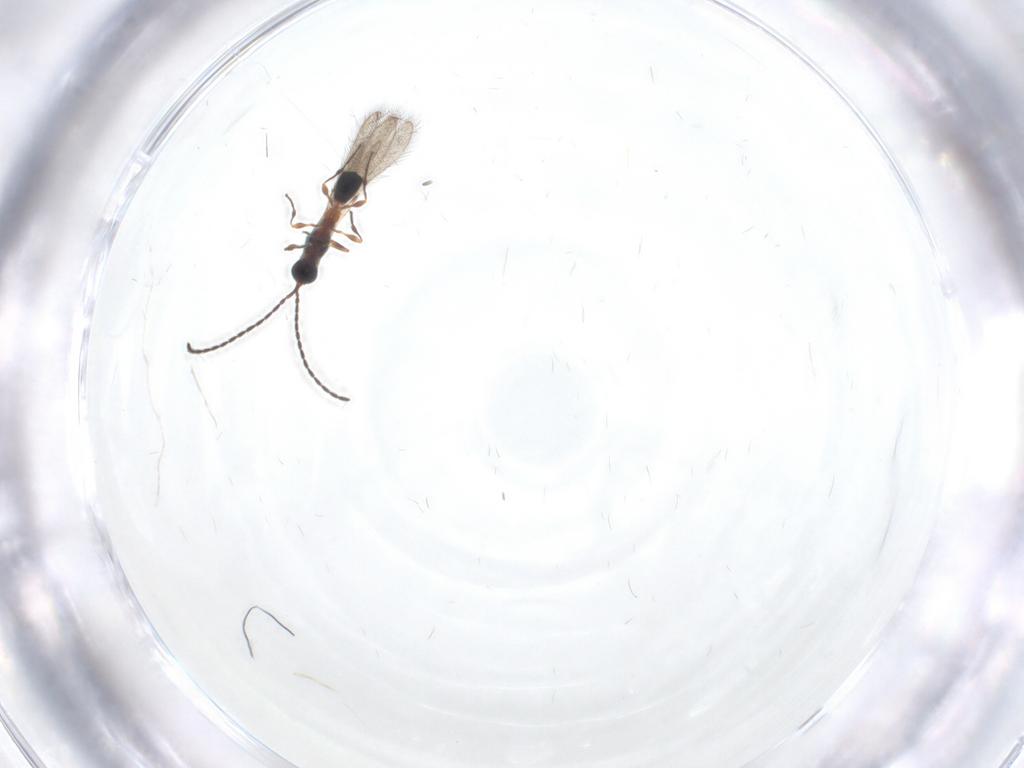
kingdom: Animalia
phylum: Arthropoda
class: Insecta
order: Hymenoptera
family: Diapriidae
